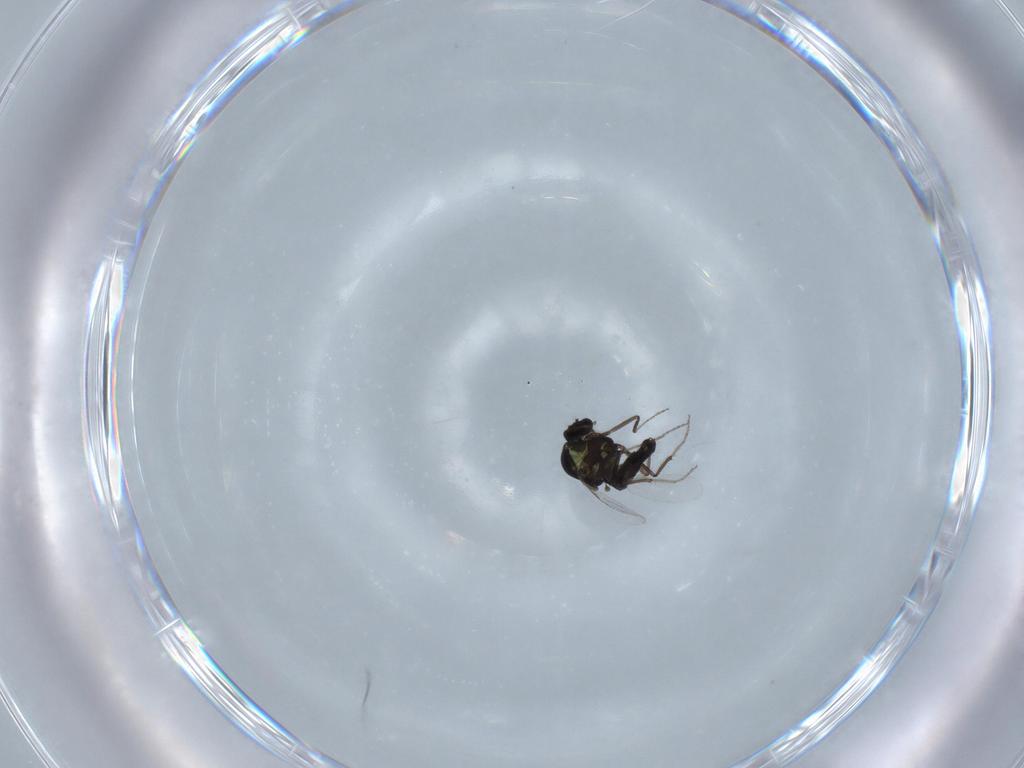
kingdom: Animalia
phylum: Arthropoda
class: Insecta
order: Diptera
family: Ceratopogonidae
